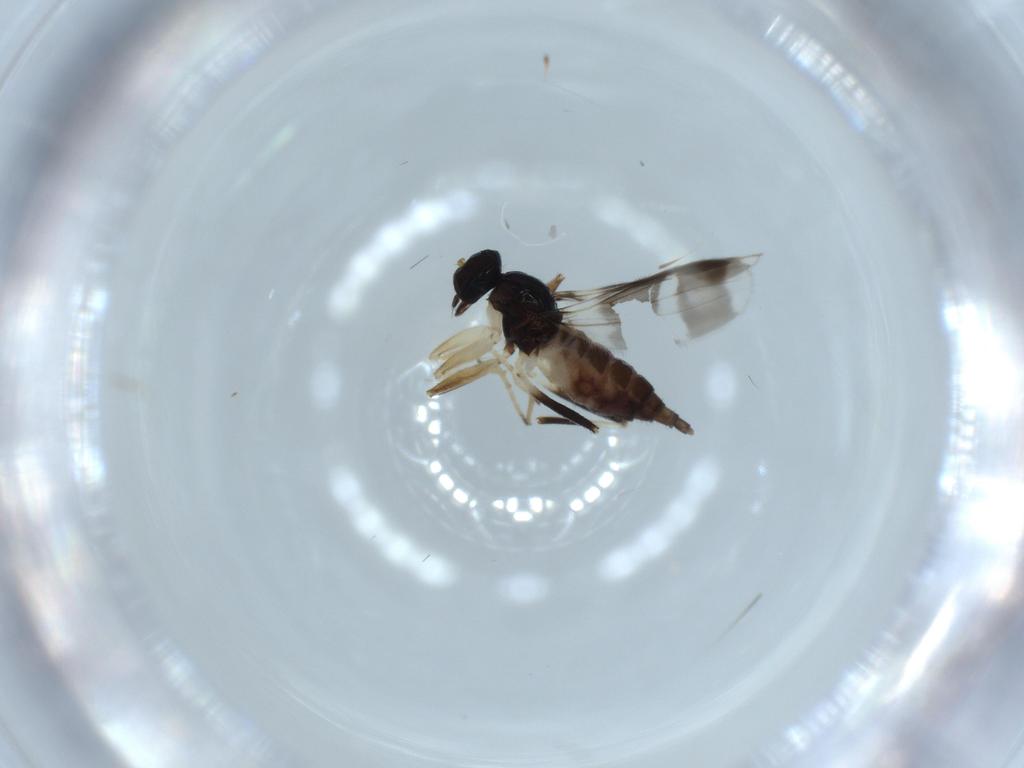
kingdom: Animalia
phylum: Arthropoda
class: Insecta
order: Diptera
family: Hybotidae
